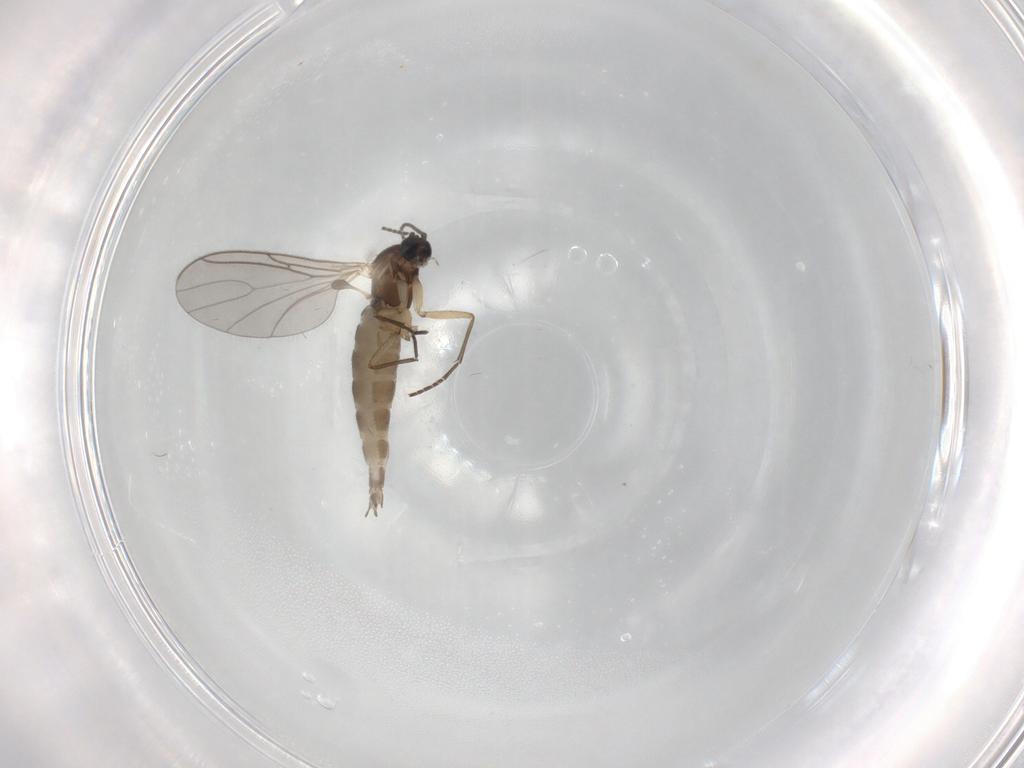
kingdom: Animalia
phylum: Arthropoda
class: Insecta
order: Diptera
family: Sciaridae
